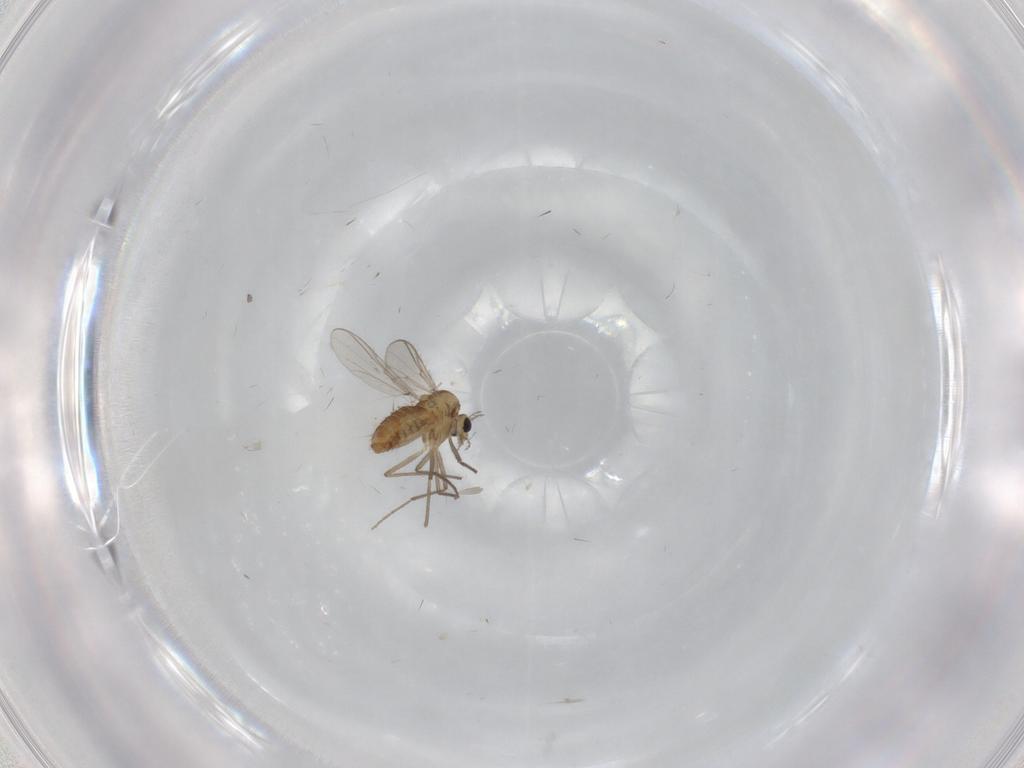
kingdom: Animalia
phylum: Arthropoda
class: Insecta
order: Diptera
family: Chironomidae
